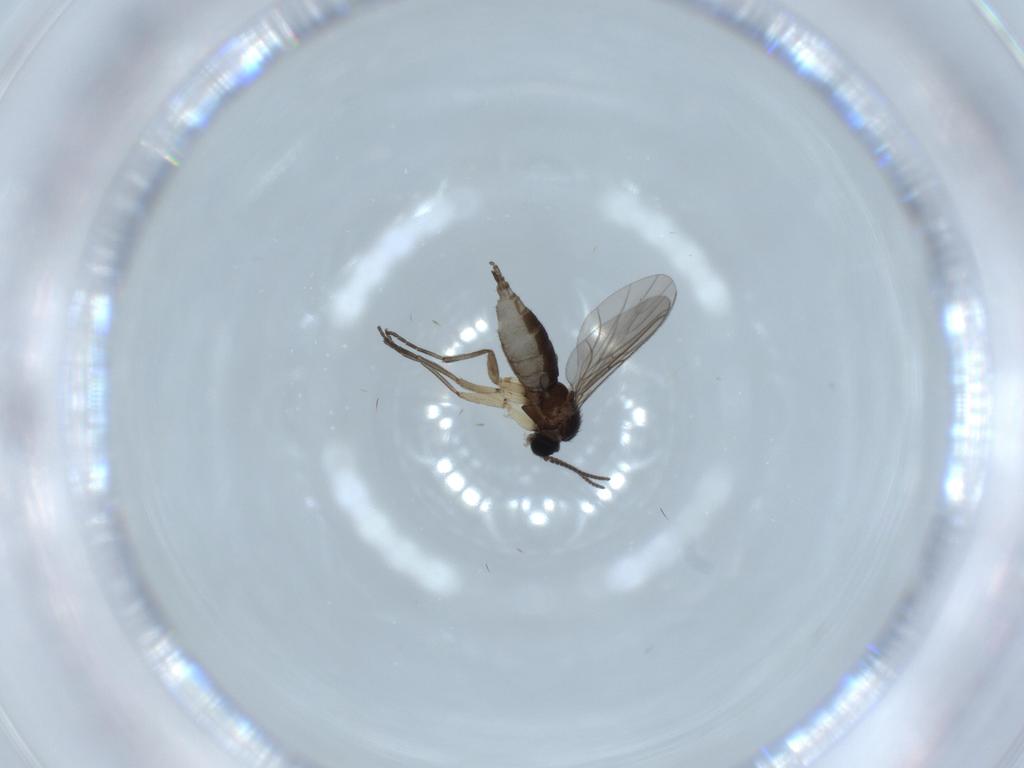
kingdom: Animalia
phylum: Arthropoda
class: Insecta
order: Diptera
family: Sciaridae
